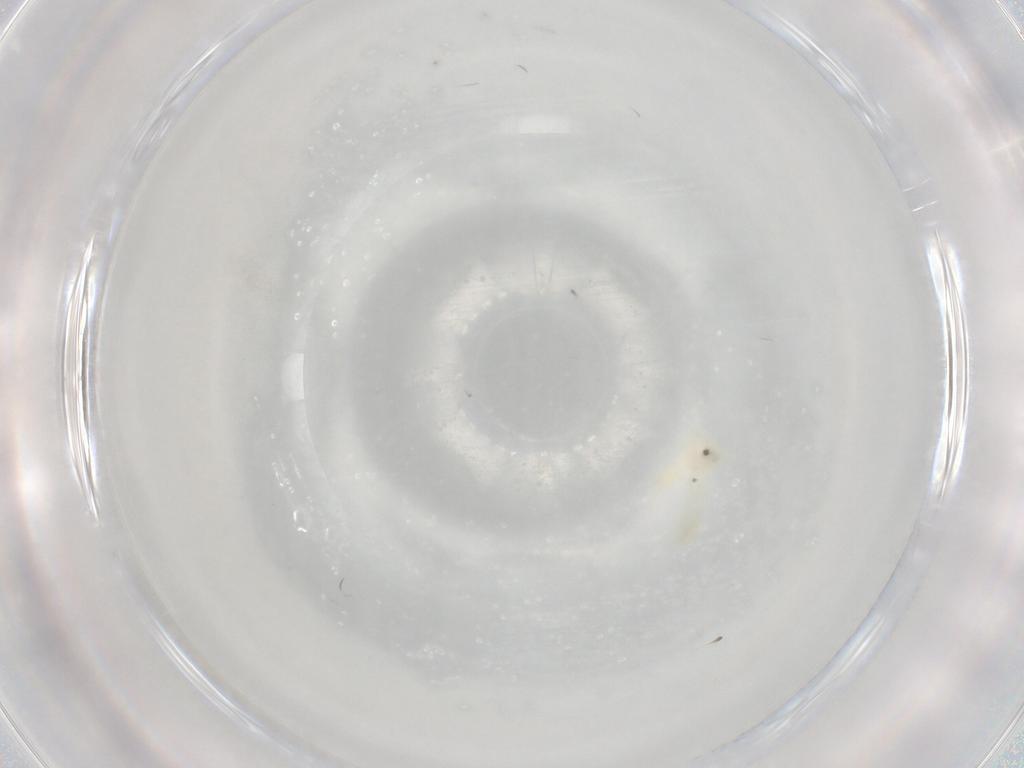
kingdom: Animalia
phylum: Arthropoda
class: Insecta
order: Hemiptera
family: Aleyrodidae
